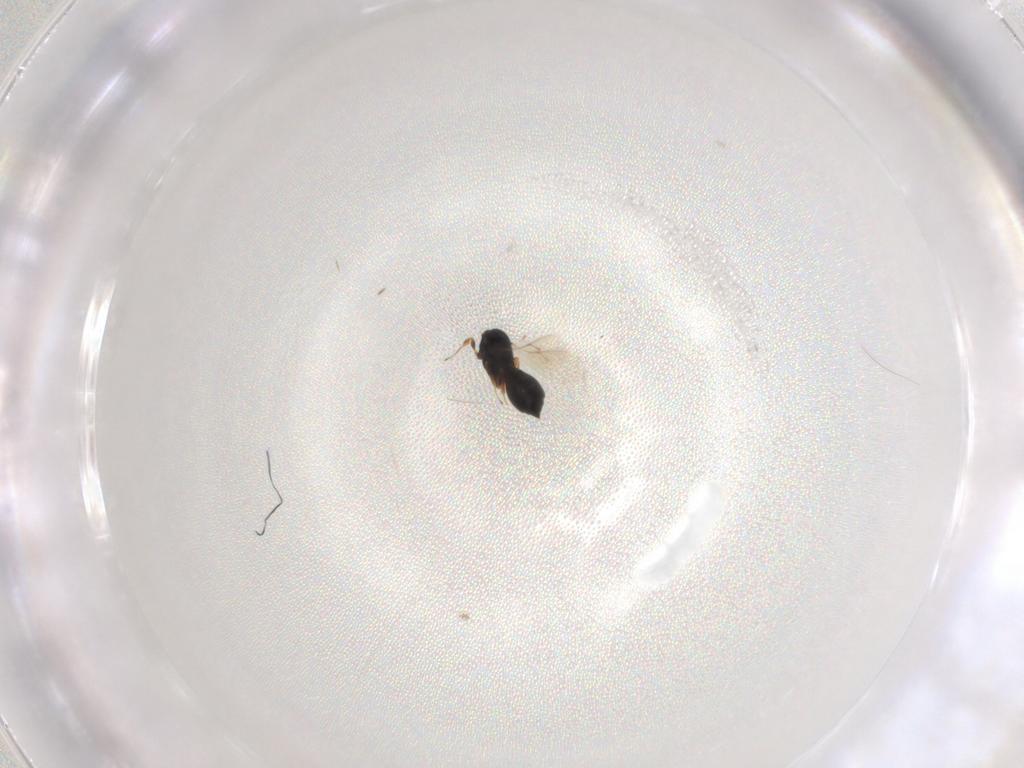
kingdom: Animalia
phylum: Arthropoda
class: Insecta
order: Hymenoptera
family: Scelionidae
